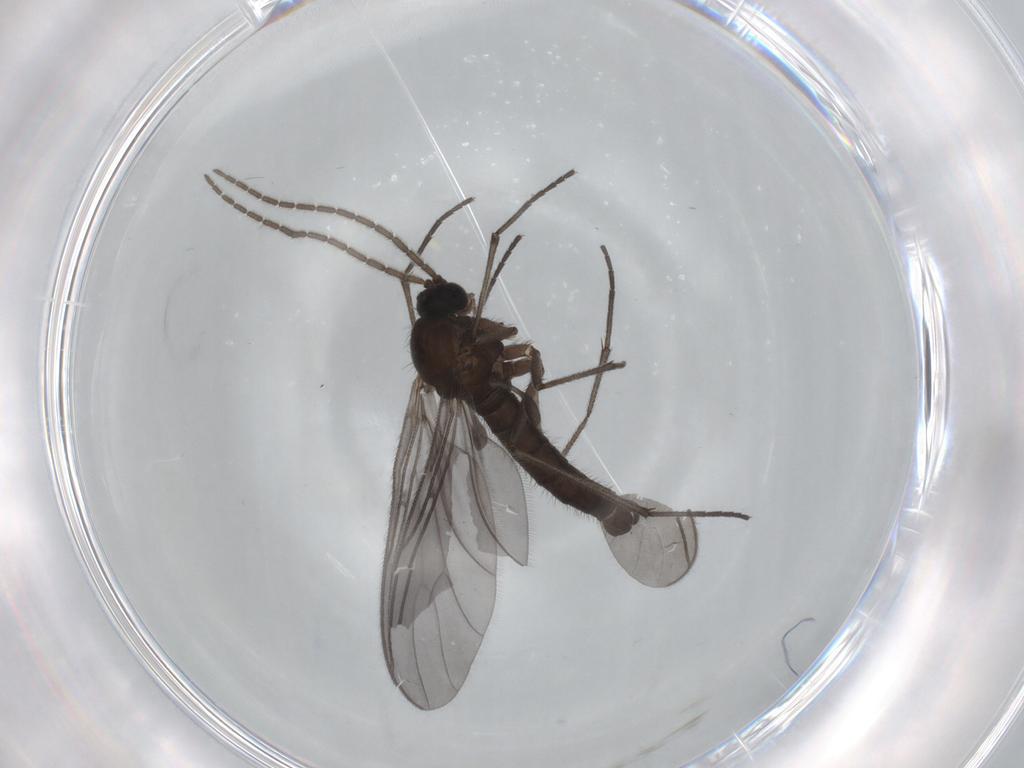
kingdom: Animalia
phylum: Arthropoda
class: Insecta
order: Diptera
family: Sciaridae
